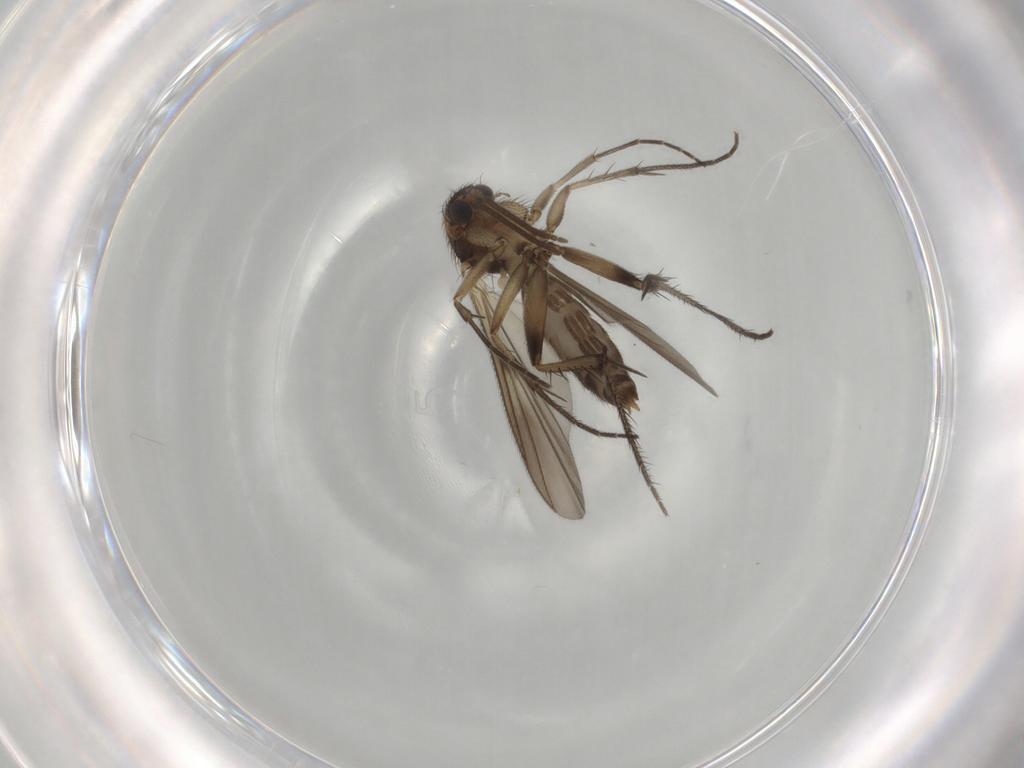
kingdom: Animalia
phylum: Arthropoda
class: Insecta
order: Diptera
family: Mycetophilidae
